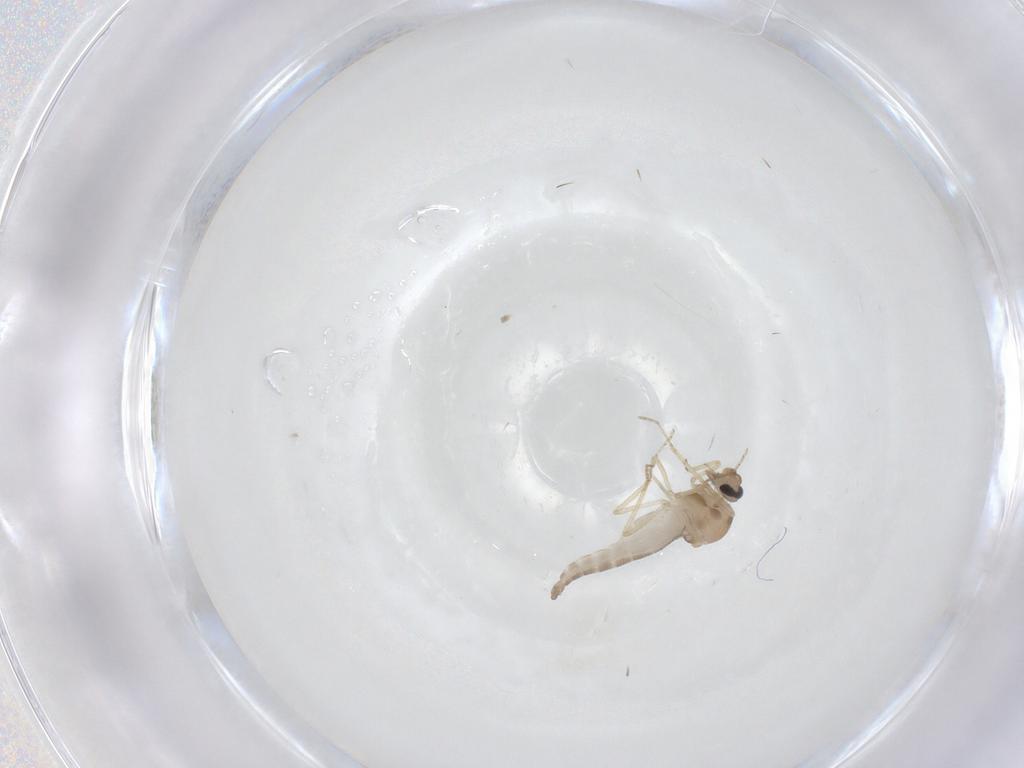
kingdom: Animalia
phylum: Arthropoda
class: Insecta
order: Diptera
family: Ceratopogonidae
